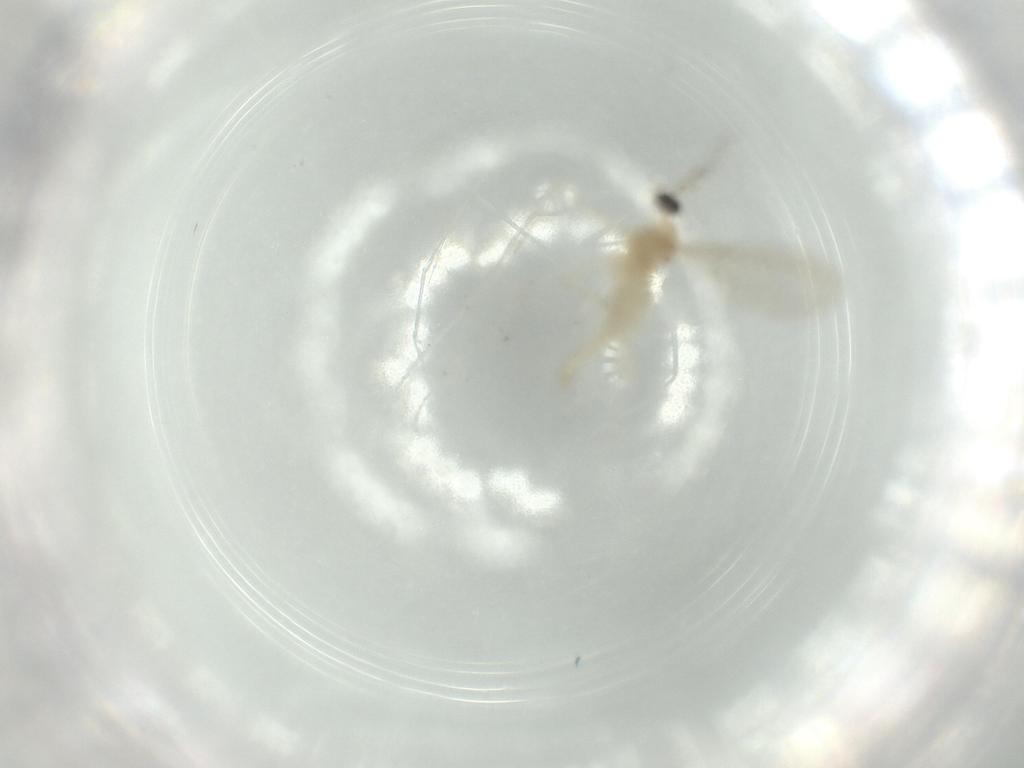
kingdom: Animalia
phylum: Arthropoda
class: Insecta
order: Diptera
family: Cecidomyiidae
